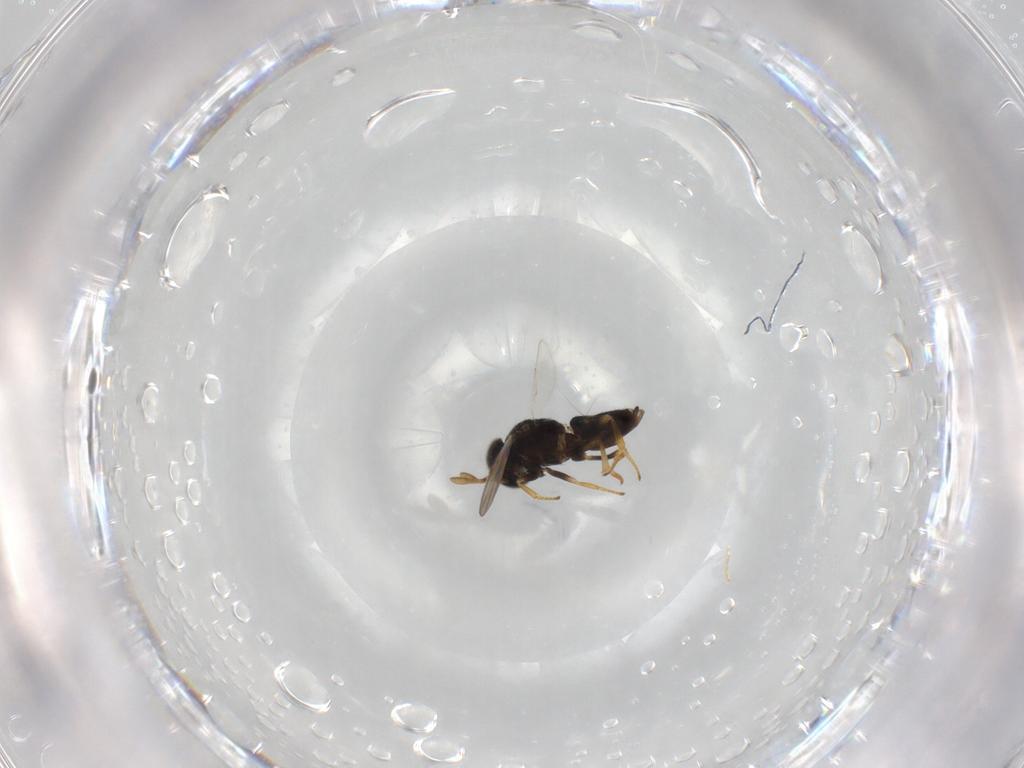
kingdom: Animalia
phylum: Arthropoda
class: Insecta
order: Hymenoptera
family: Encyrtidae
